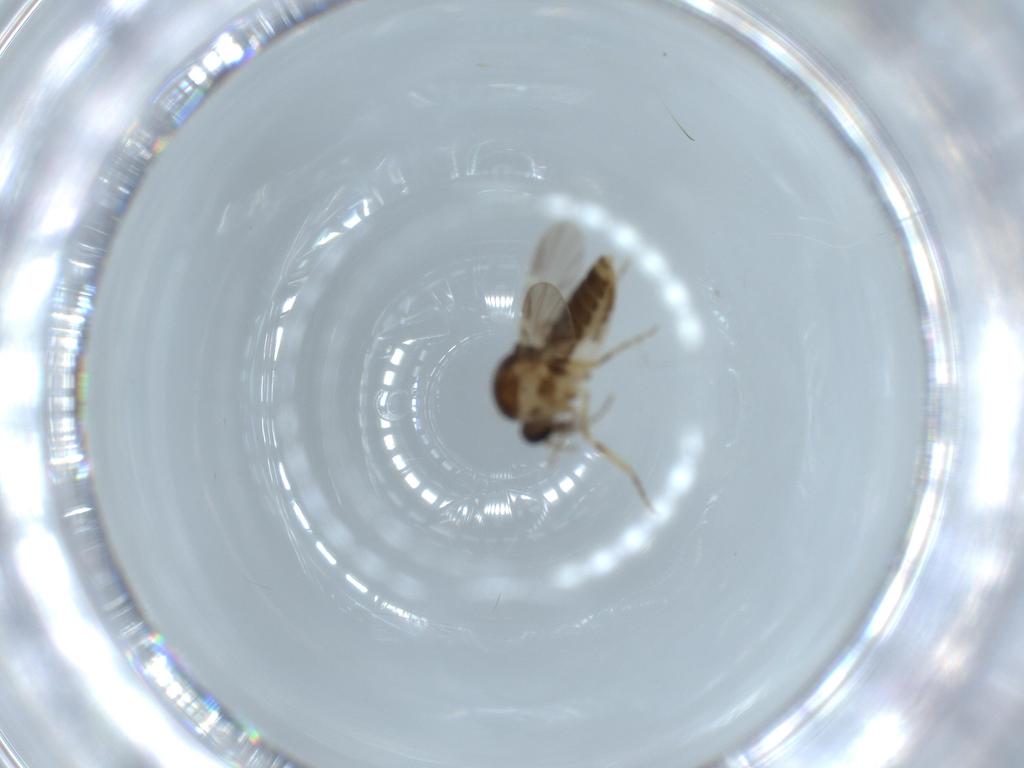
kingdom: Animalia
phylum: Arthropoda
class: Insecta
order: Diptera
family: Ceratopogonidae
